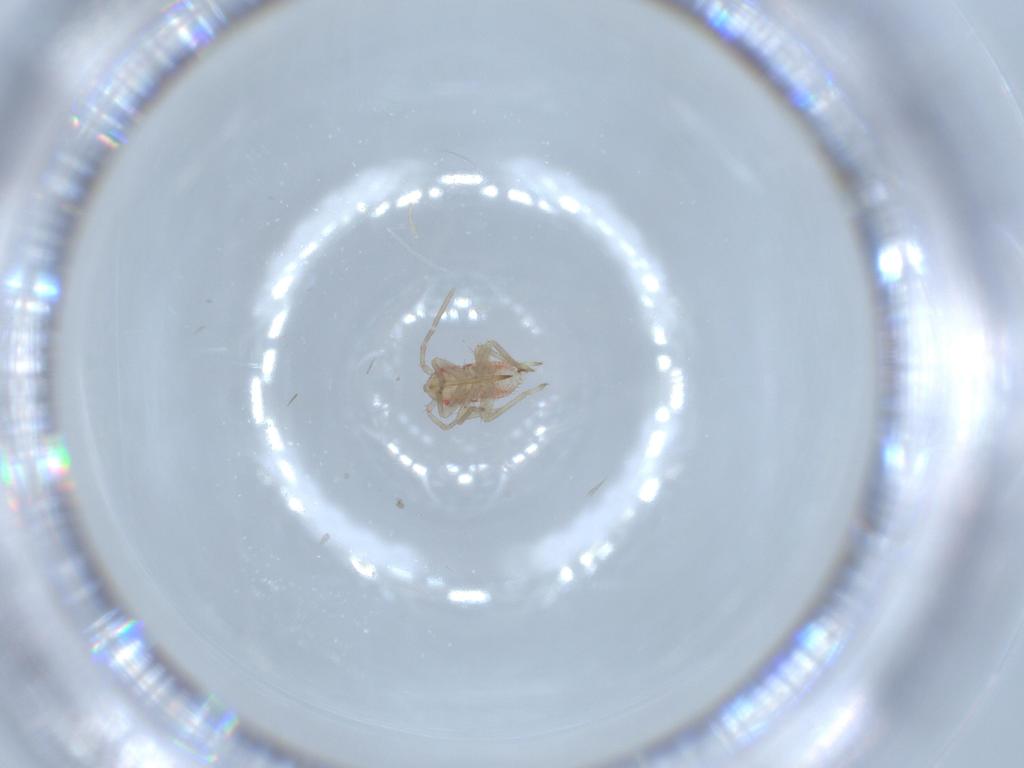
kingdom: Animalia
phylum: Arthropoda
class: Insecta
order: Hemiptera
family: Miridae
